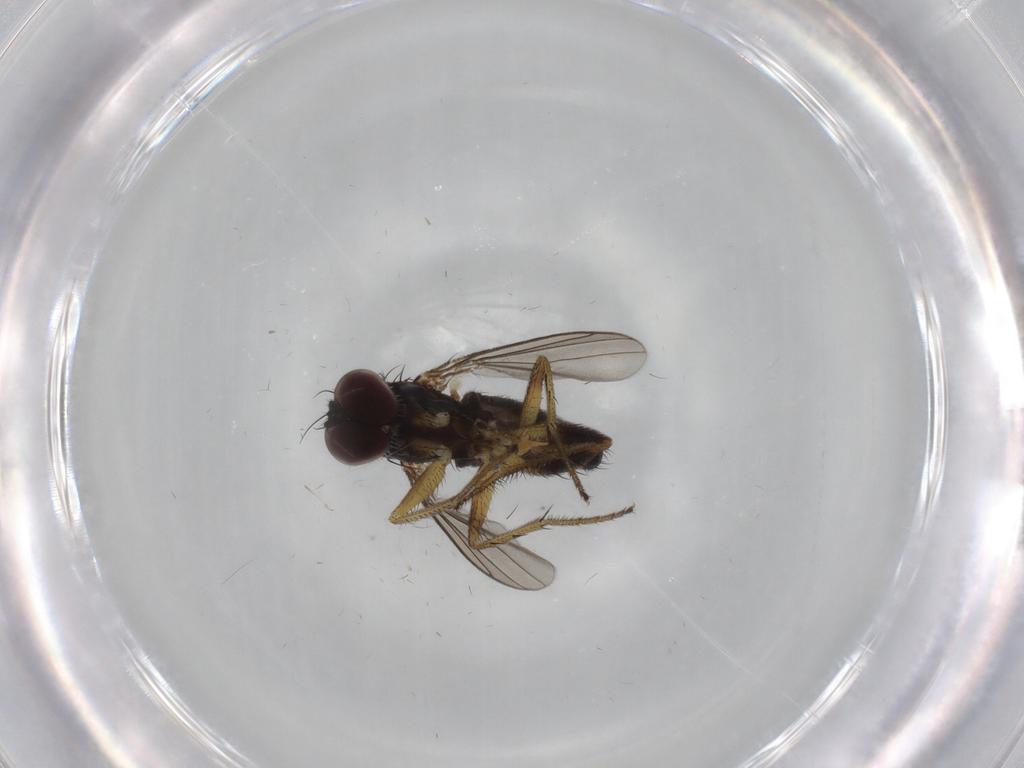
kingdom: Animalia
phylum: Arthropoda
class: Insecta
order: Diptera
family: Dolichopodidae
